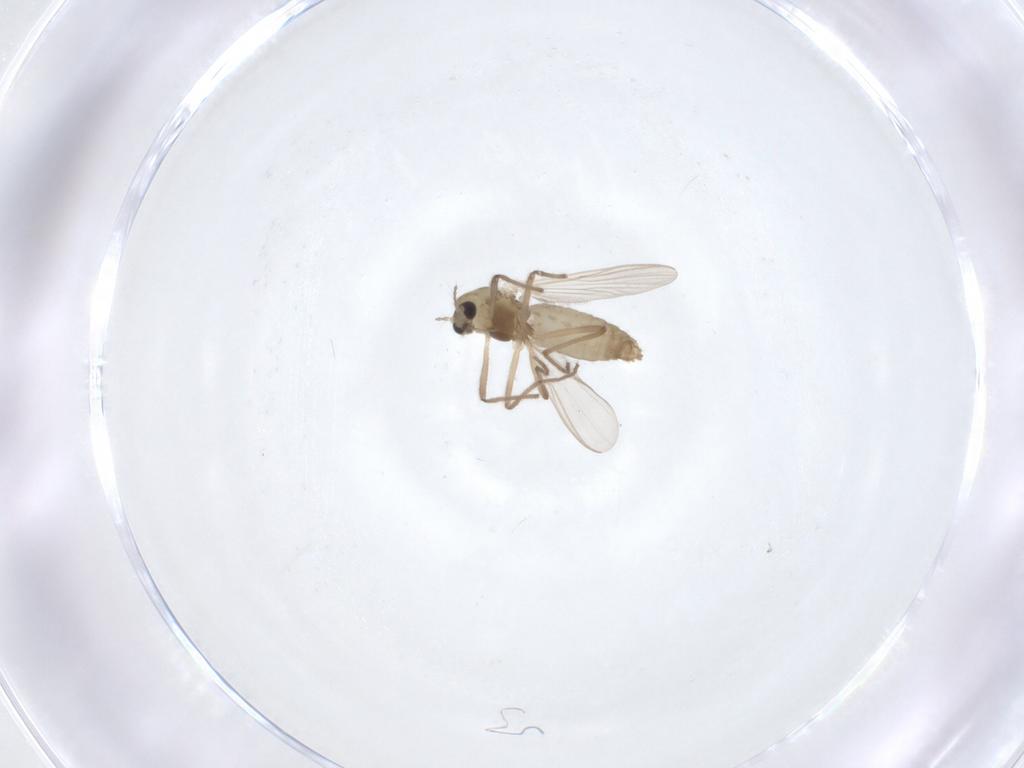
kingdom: Animalia
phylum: Arthropoda
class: Insecta
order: Diptera
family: Chironomidae
